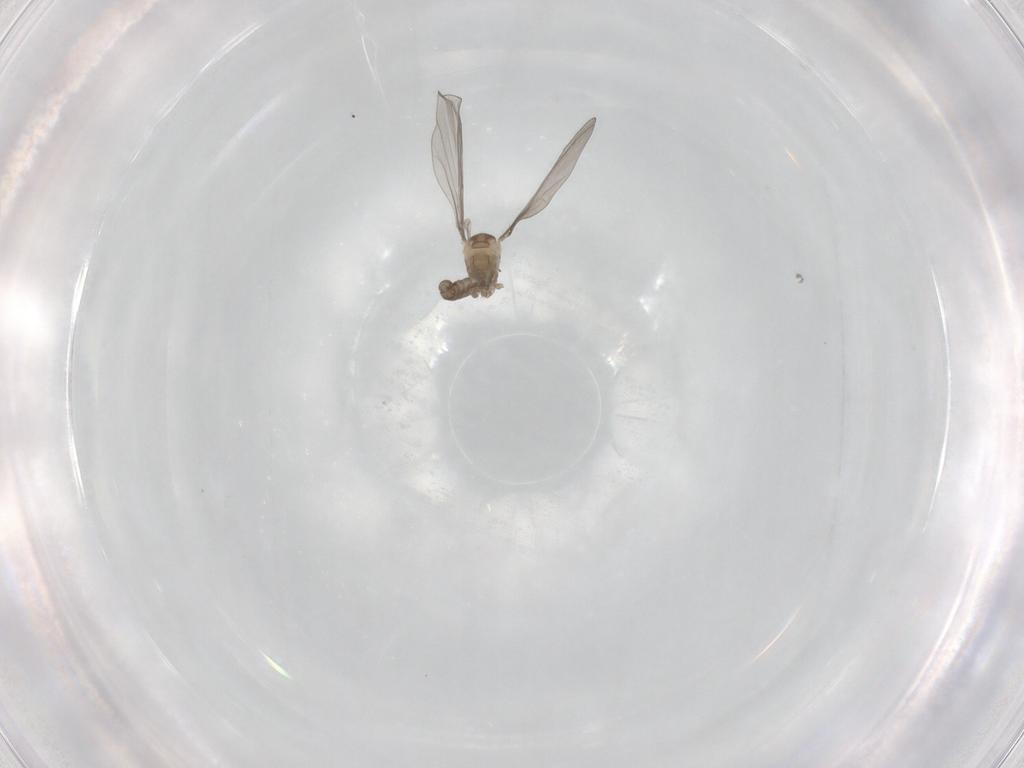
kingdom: Animalia
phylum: Arthropoda
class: Insecta
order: Diptera
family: Cecidomyiidae
